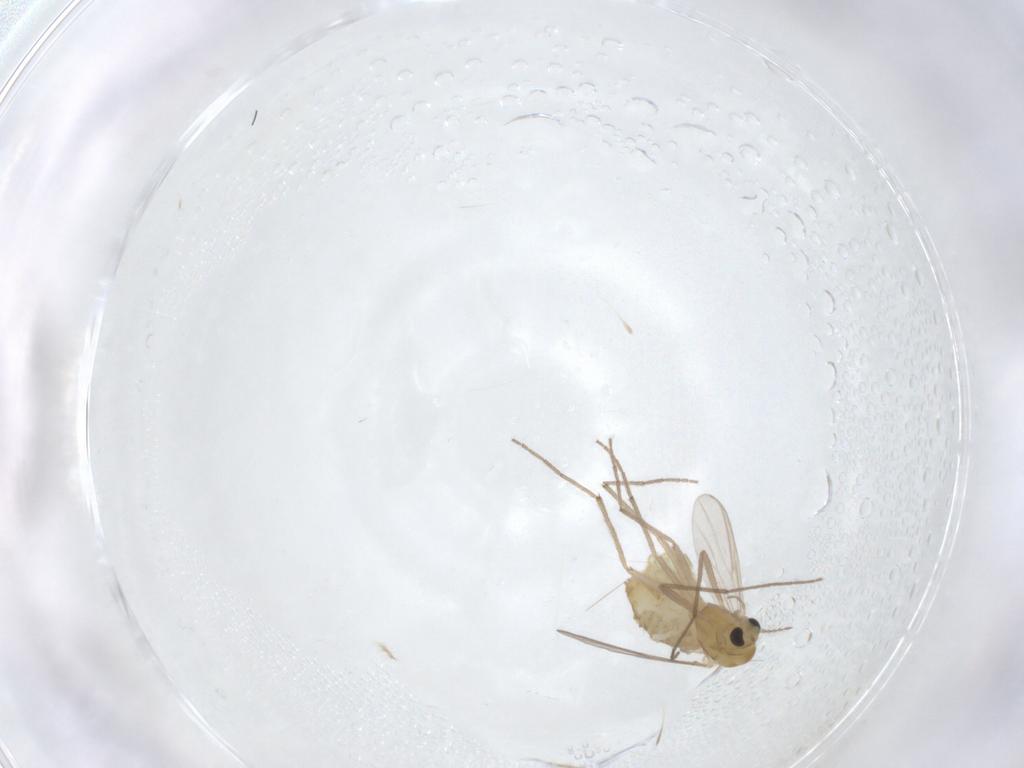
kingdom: Animalia
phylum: Arthropoda
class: Insecta
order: Diptera
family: Chironomidae
